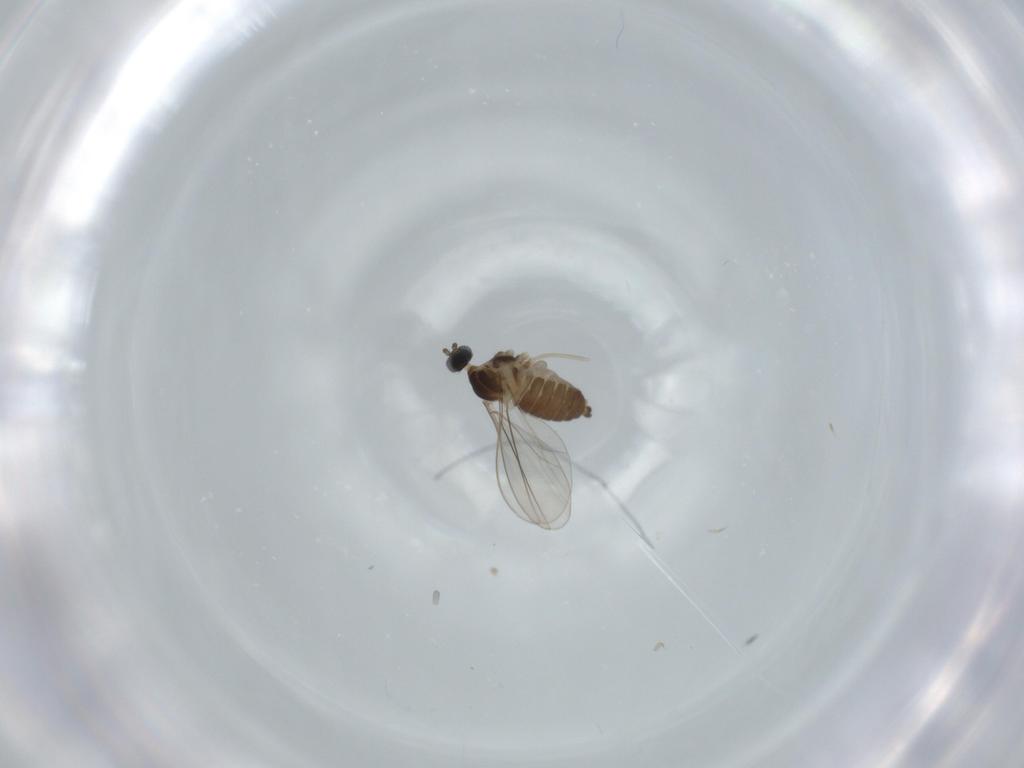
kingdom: Animalia
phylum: Arthropoda
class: Insecta
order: Diptera
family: Cecidomyiidae
